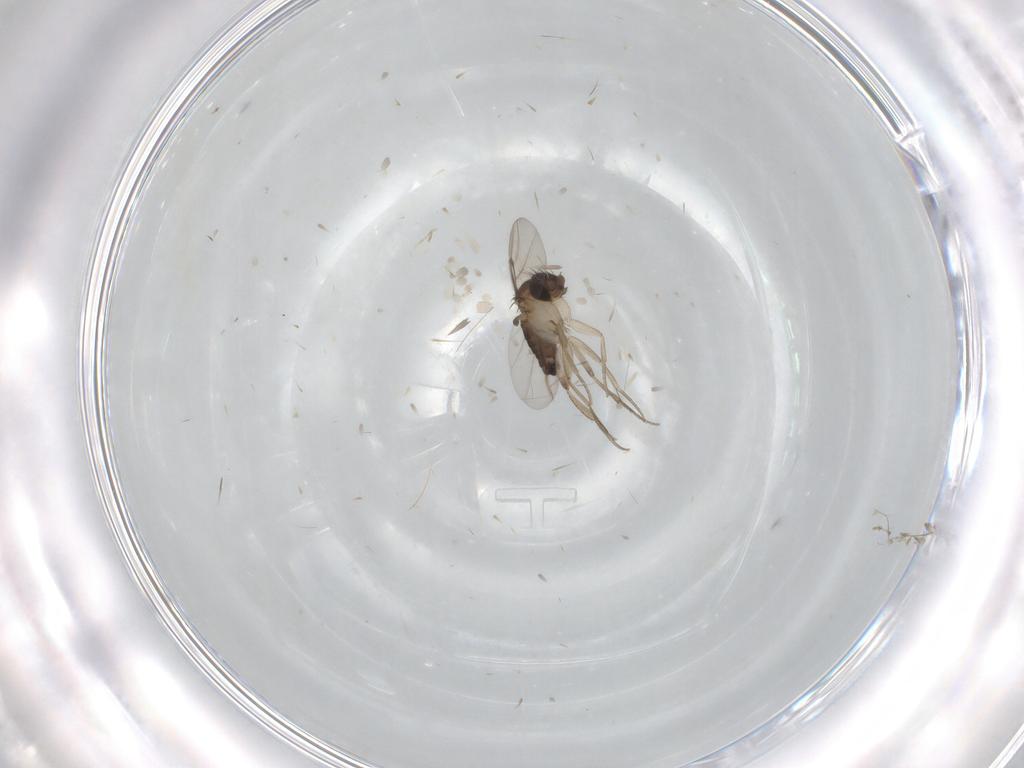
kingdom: Animalia
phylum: Arthropoda
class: Insecta
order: Diptera
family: Phoridae
